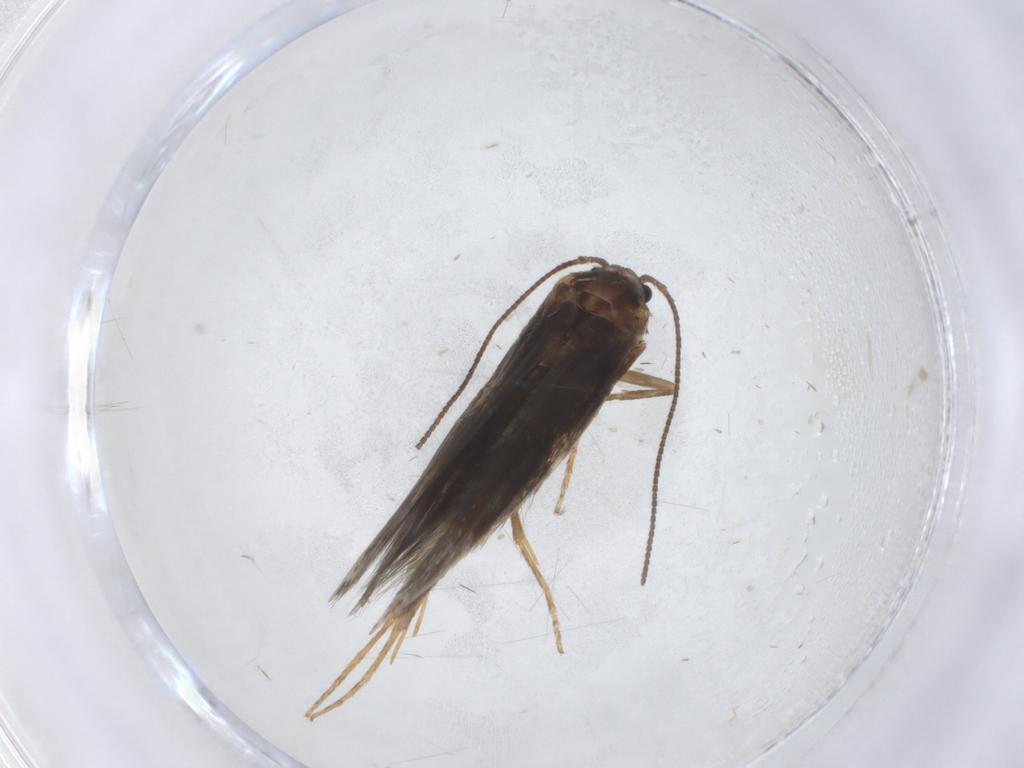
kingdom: Animalia
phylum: Arthropoda
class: Insecta
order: Lepidoptera
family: Nepticulidae
